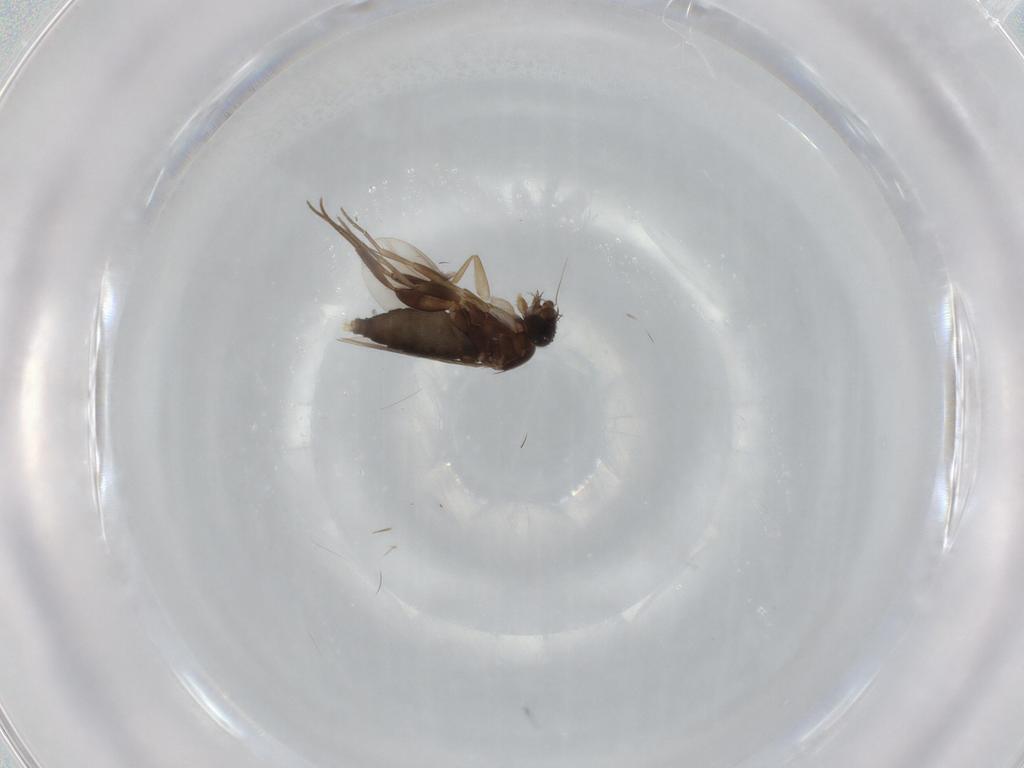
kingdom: Animalia
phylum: Arthropoda
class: Insecta
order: Diptera
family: Phoridae
